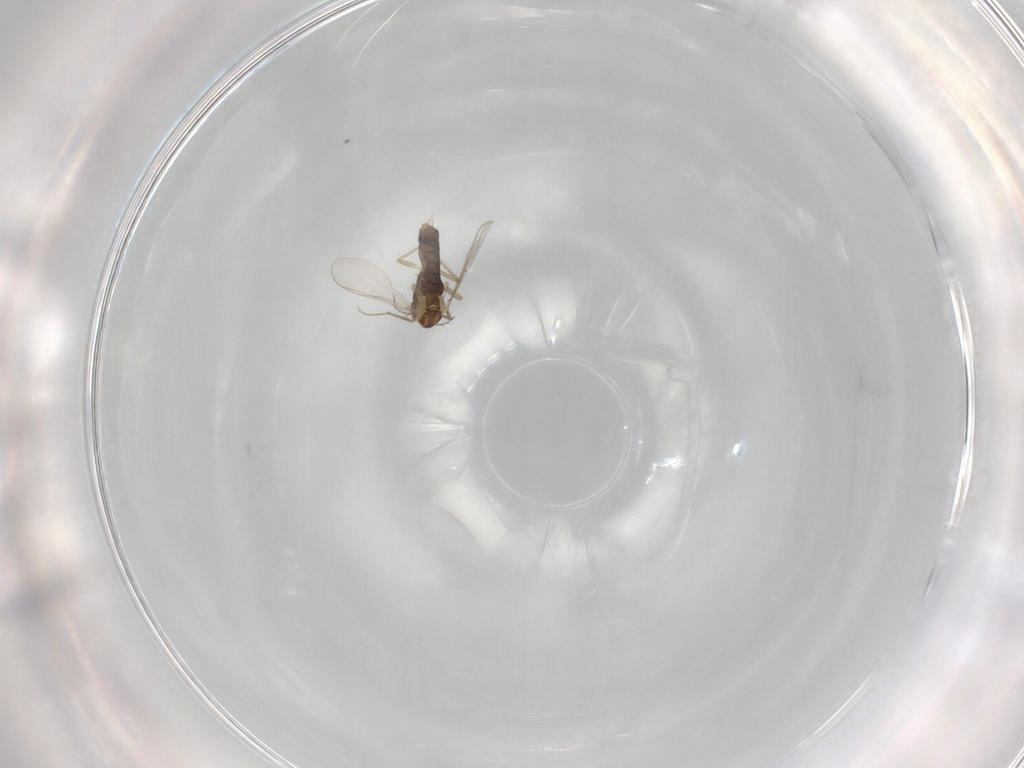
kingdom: Animalia
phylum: Arthropoda
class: Insecta
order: Diptera
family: Chironomidae
